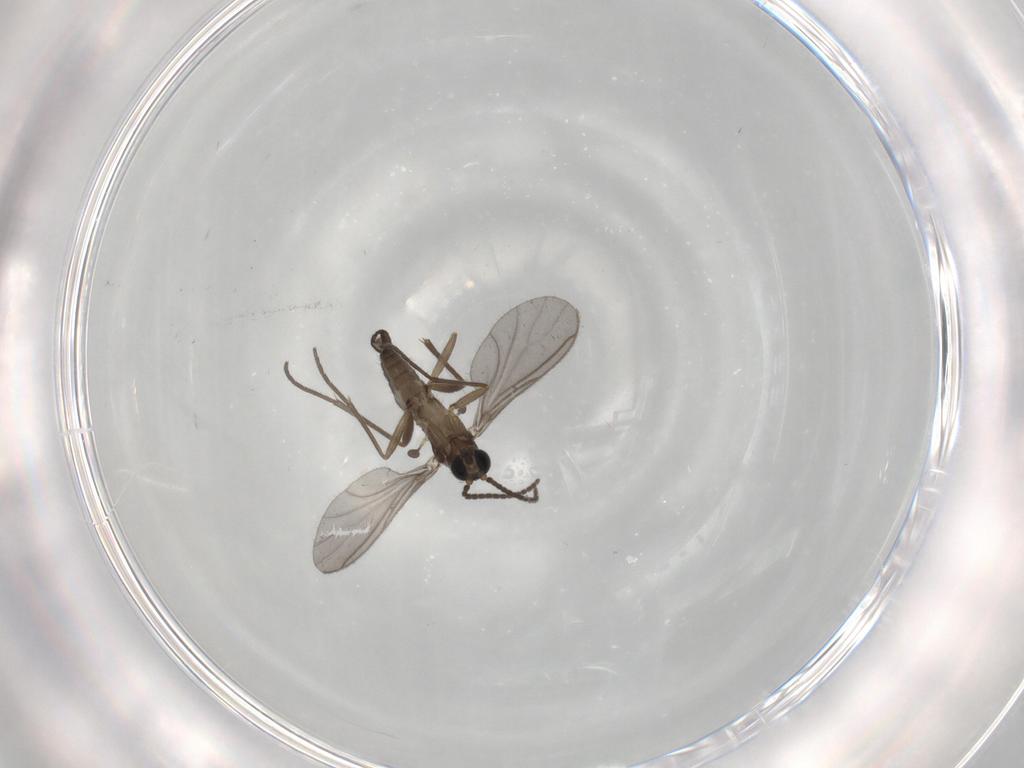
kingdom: Animalia
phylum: Arthropoda
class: Insecta
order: Diptera
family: Sciaridae
